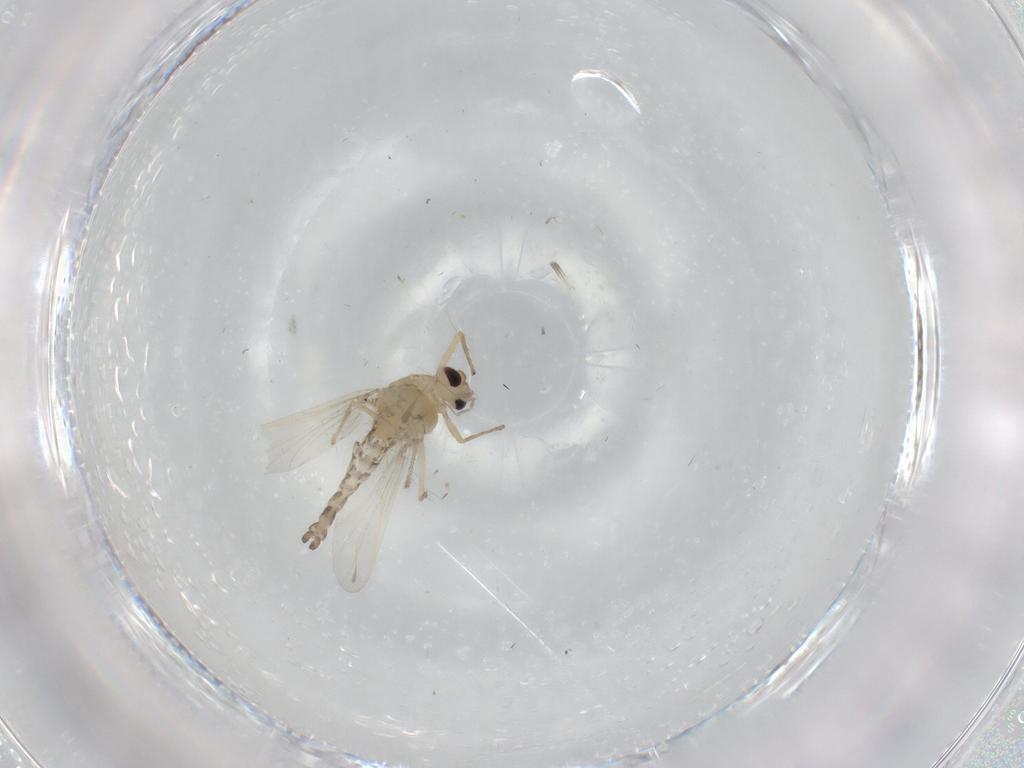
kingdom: Animalia
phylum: Arthropoda
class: Insecta
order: Diptera
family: Chironomidae
